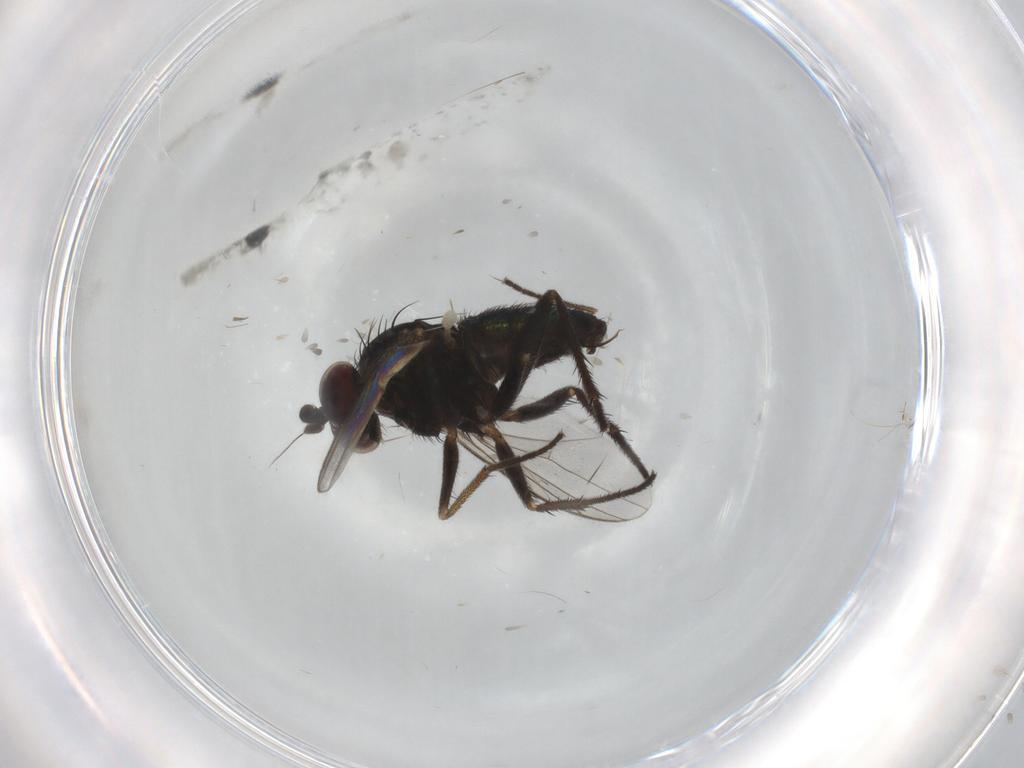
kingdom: Animalia
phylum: Arthropoda
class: Insecta
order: Diptera
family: Dolichopodidae
